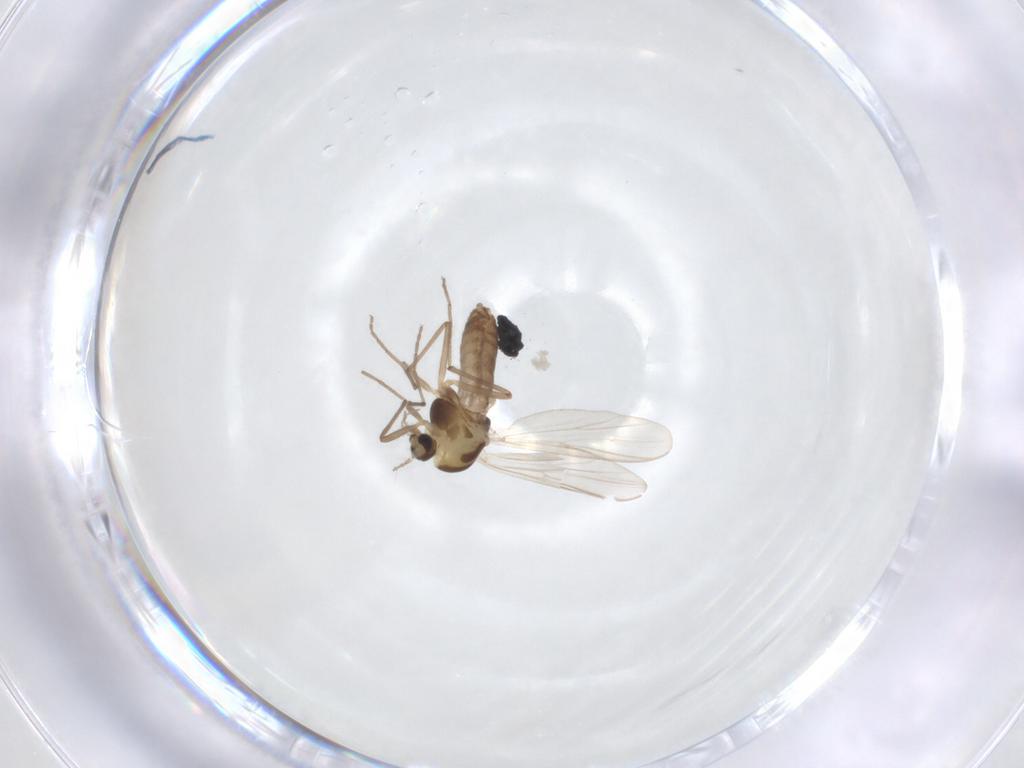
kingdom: Animalia
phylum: Arthropoda
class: Insecta
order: Diptera
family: Chironomidae
